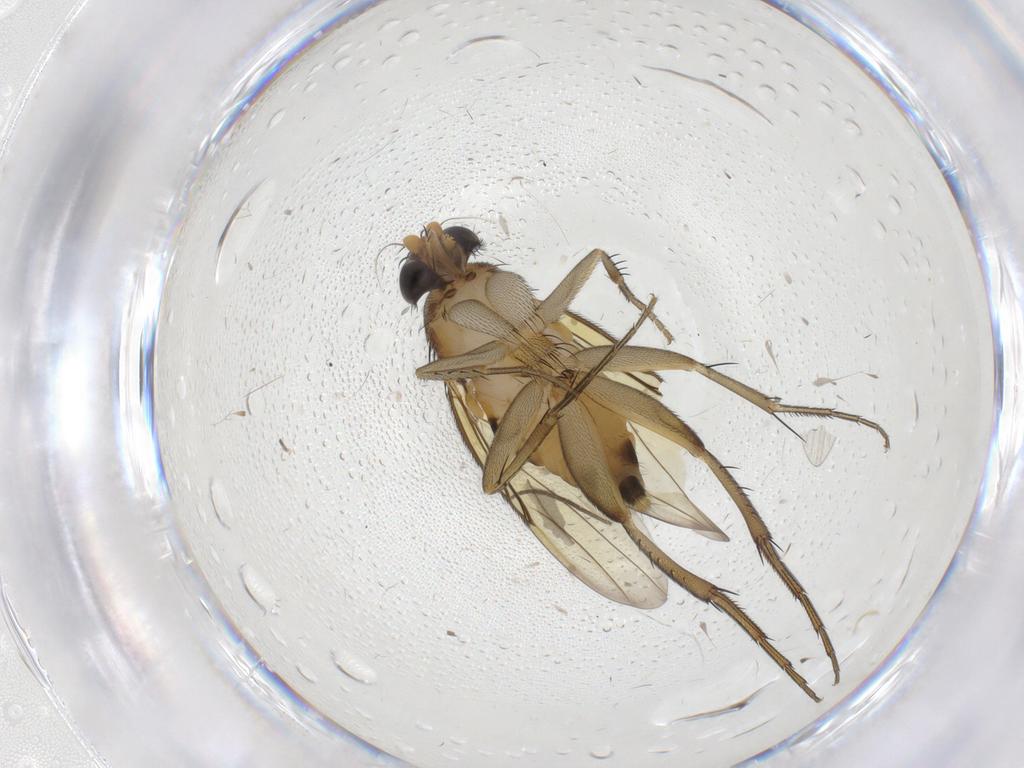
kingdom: Animalia
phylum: Arthropoda
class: Insecta
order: Diptera
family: Phoridae
